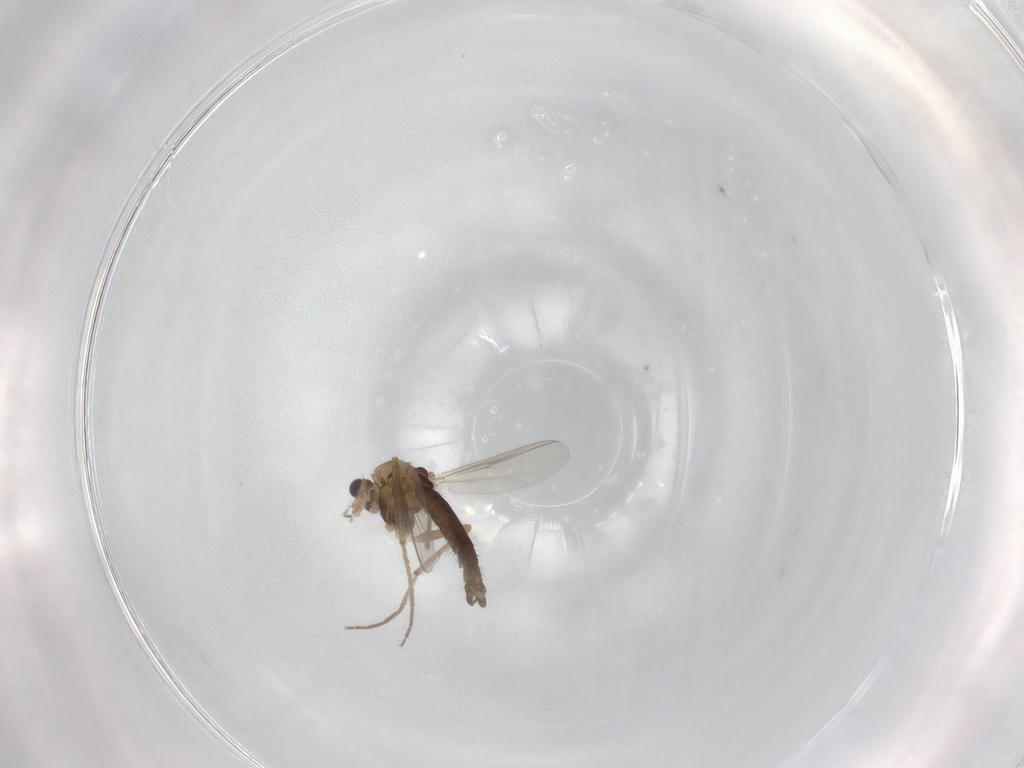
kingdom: Animalia
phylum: Arthropoda
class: Insecta
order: Diptera
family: Chironomidae
